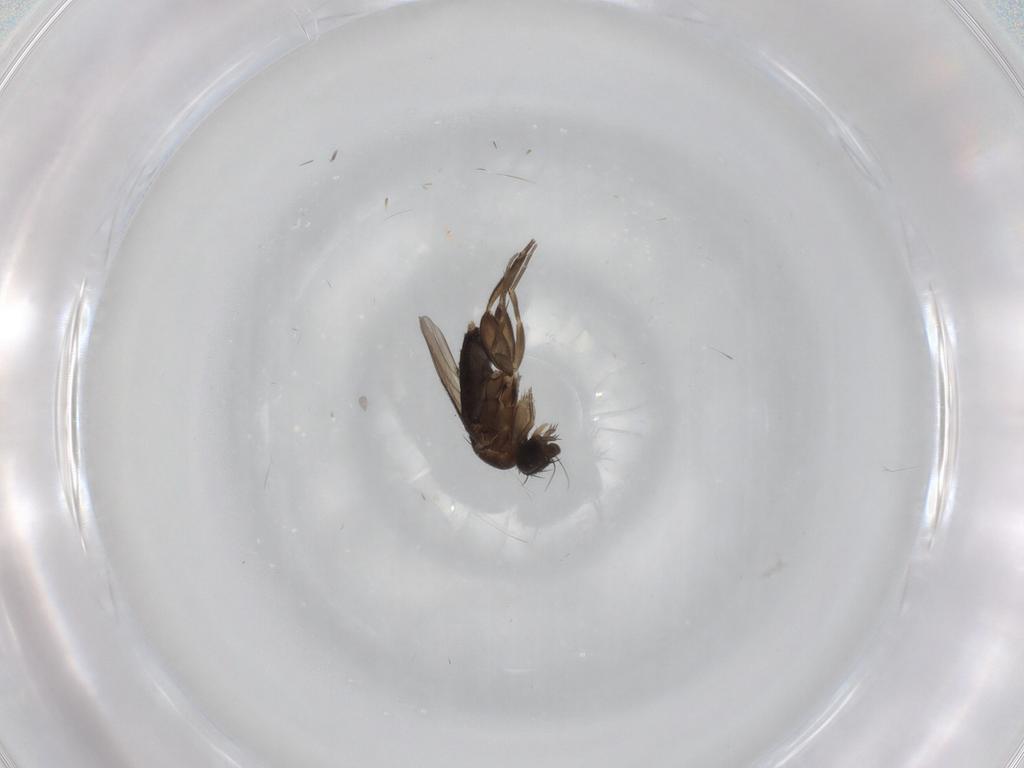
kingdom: Animalia
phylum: Arthropoda
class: Insecta
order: Diptera
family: Phoridae
